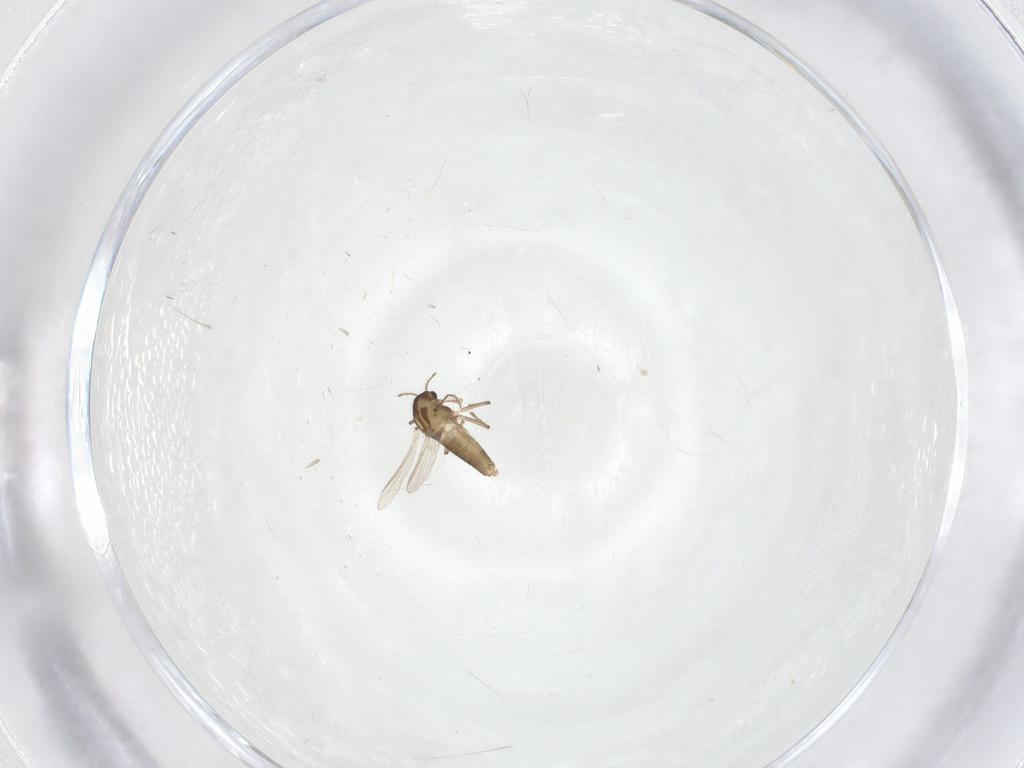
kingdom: Animalia
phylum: Arthropoda
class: Insecta
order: Diptera
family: Chironomidae
